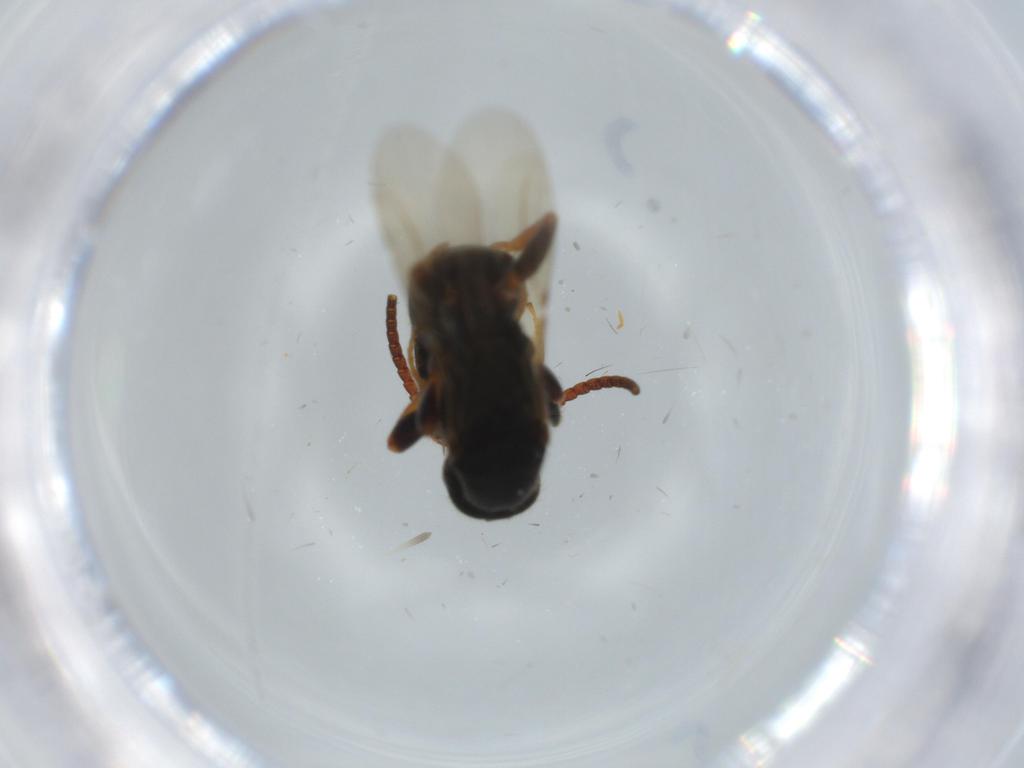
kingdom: Animalia
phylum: Arthropoda
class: Insecta
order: Hymenoptera
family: Bethylidae
